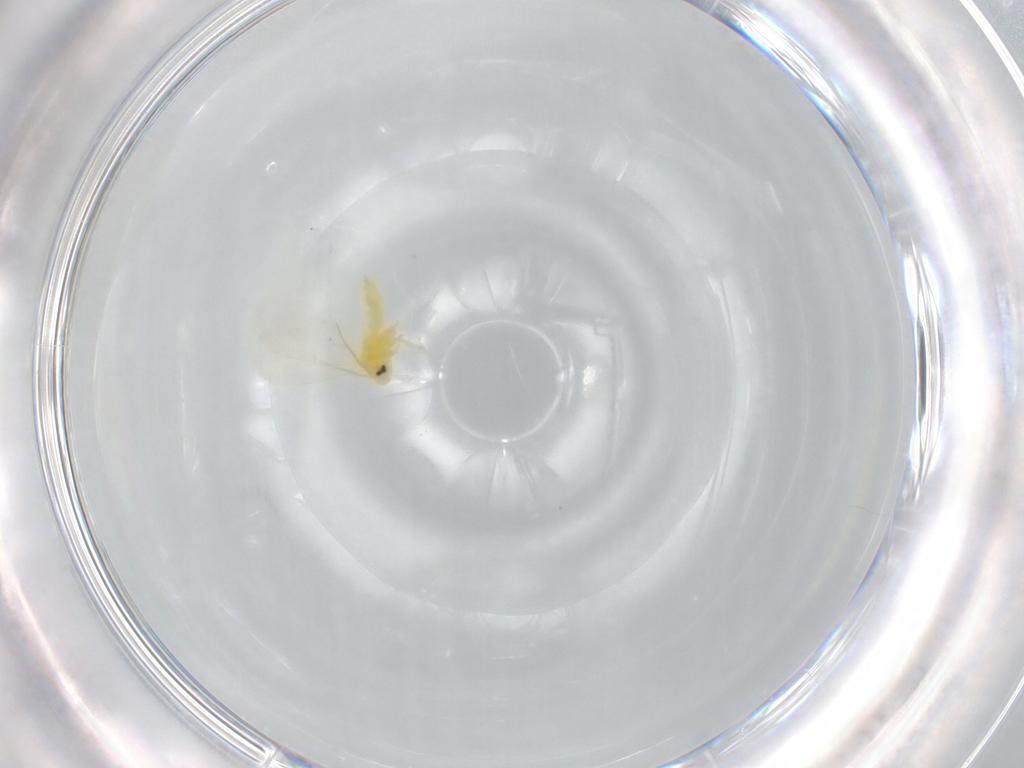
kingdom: Animalia
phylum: Arthropoda
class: Insecta
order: Hemiptera
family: Aleyrodidae
